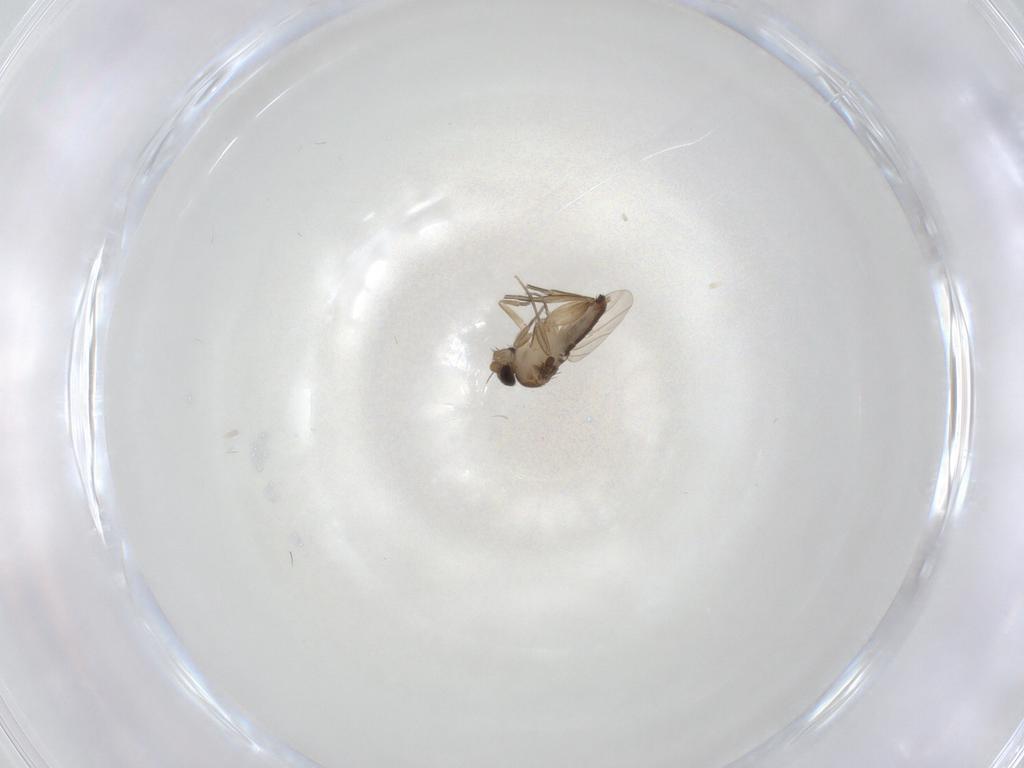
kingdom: Animalia
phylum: Arthropoda
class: Insecta
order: Diptera
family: Phoridae
